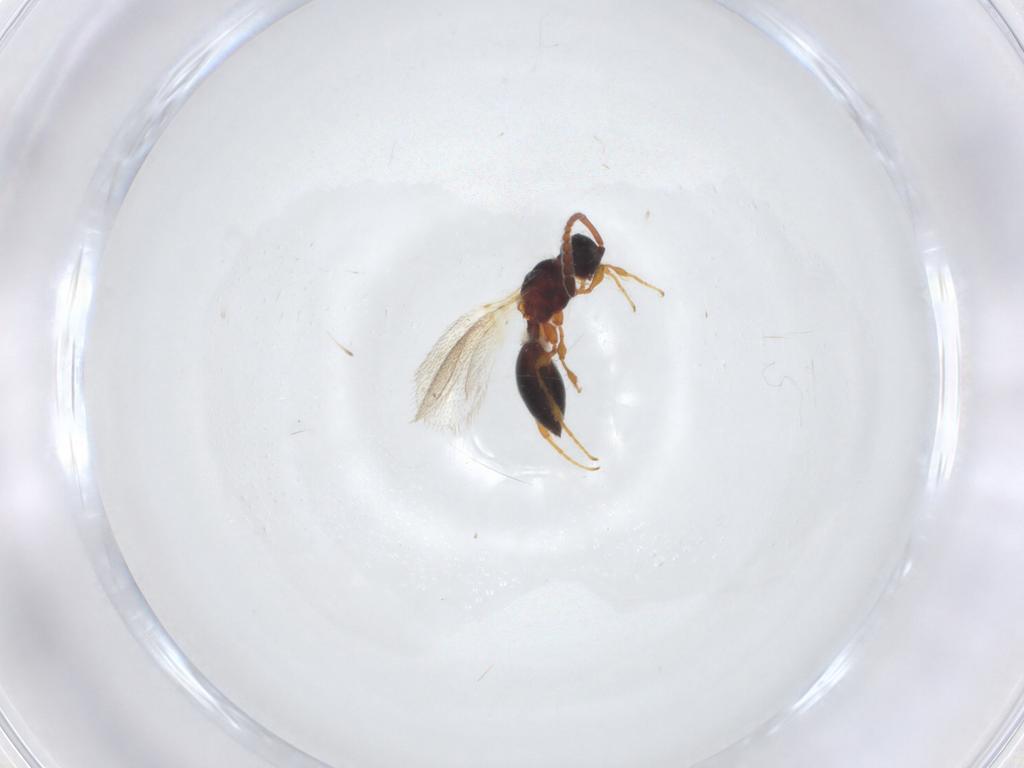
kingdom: Animalia
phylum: Arthropoda
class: Insecta
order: Hymenoptera
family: Diapriidae
